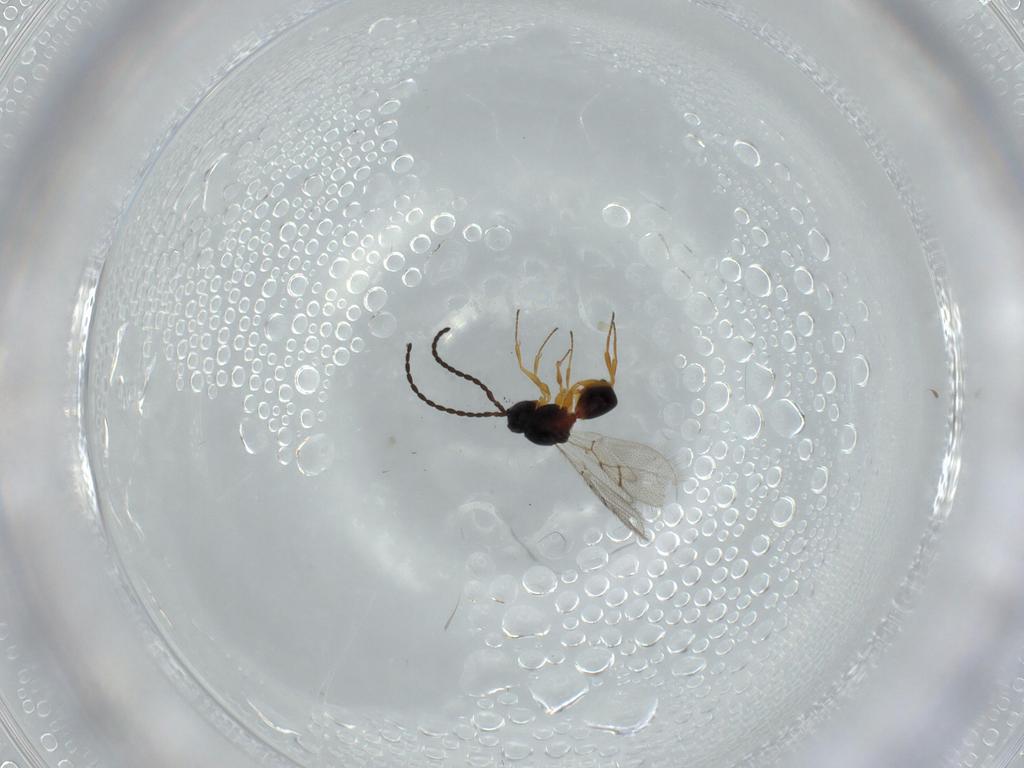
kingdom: Animalia
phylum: Arthropoda
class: Insecta
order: Hymenoptera
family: Figitidae
